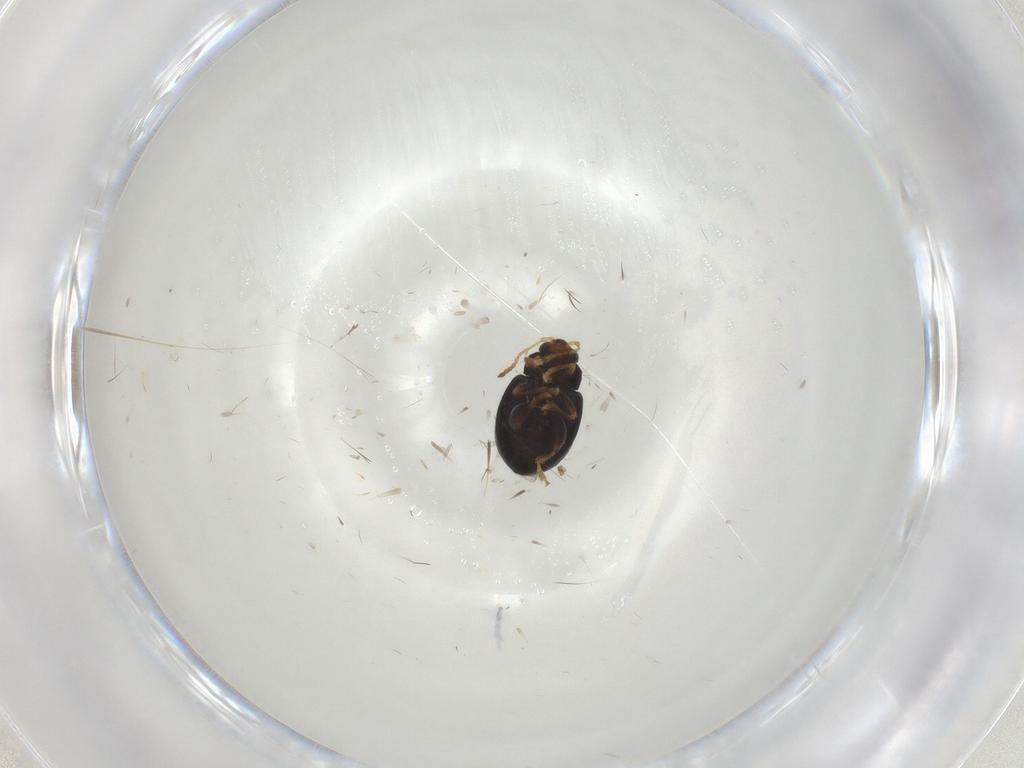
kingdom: Animalia
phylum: Arthropoda
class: Insecta
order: Coleoptera
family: Chrysomelidae
